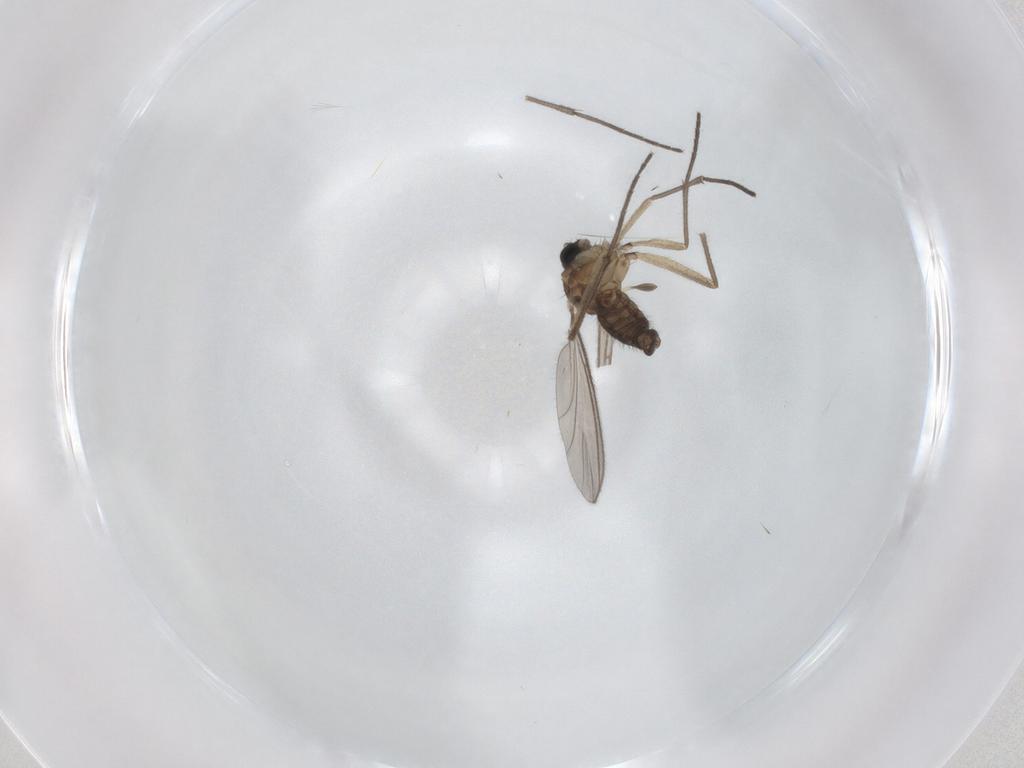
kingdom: Animalia
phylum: Arthropoda
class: Insecta
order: Diptera
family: Chironomidae
